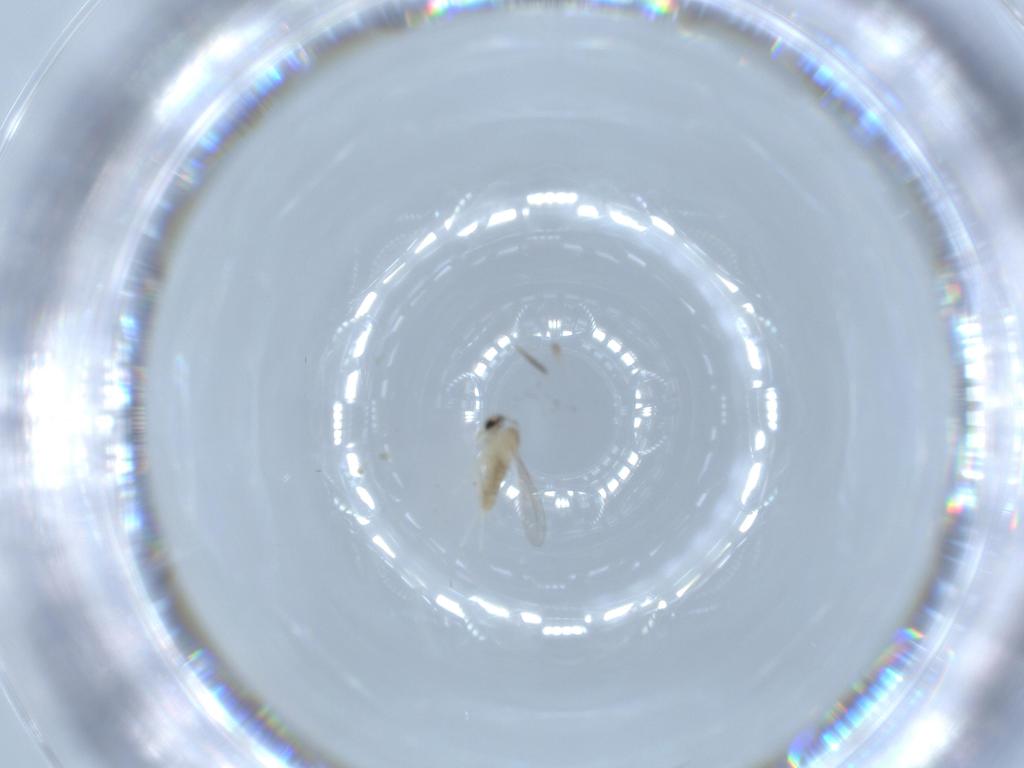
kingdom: Animalia
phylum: Arthropoda
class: Insecta
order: Diptera
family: Cecidomyiidae
